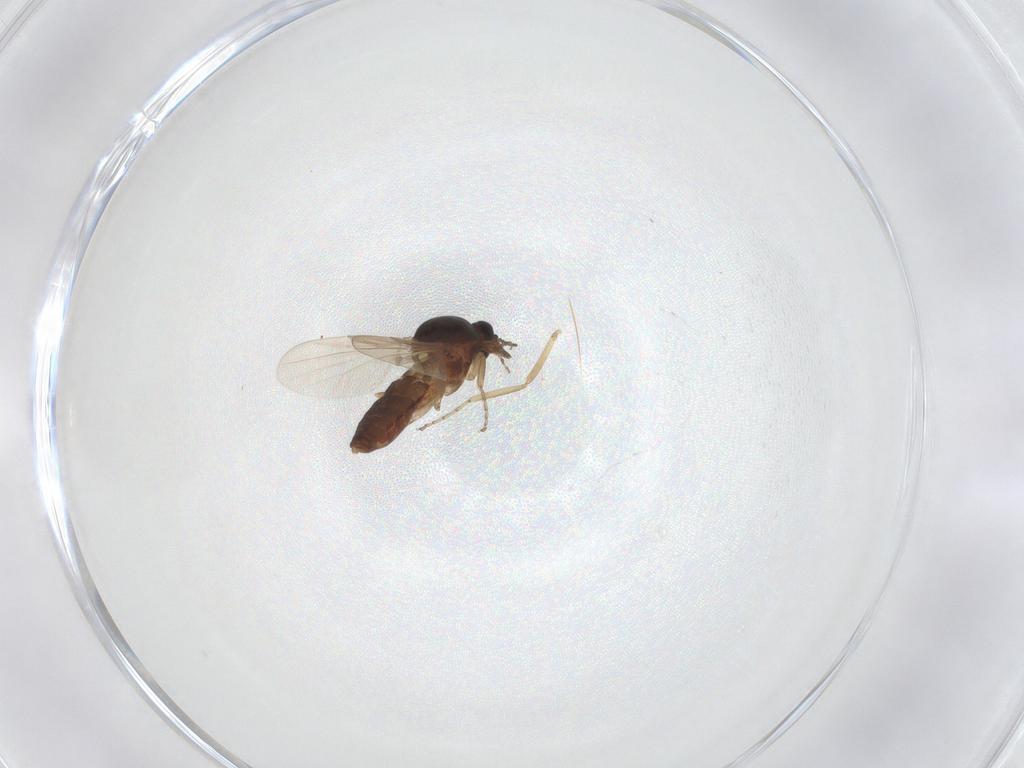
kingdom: Animalia
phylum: Arthropoda
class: Insecta
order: Diptera
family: Ceratopogonidae
